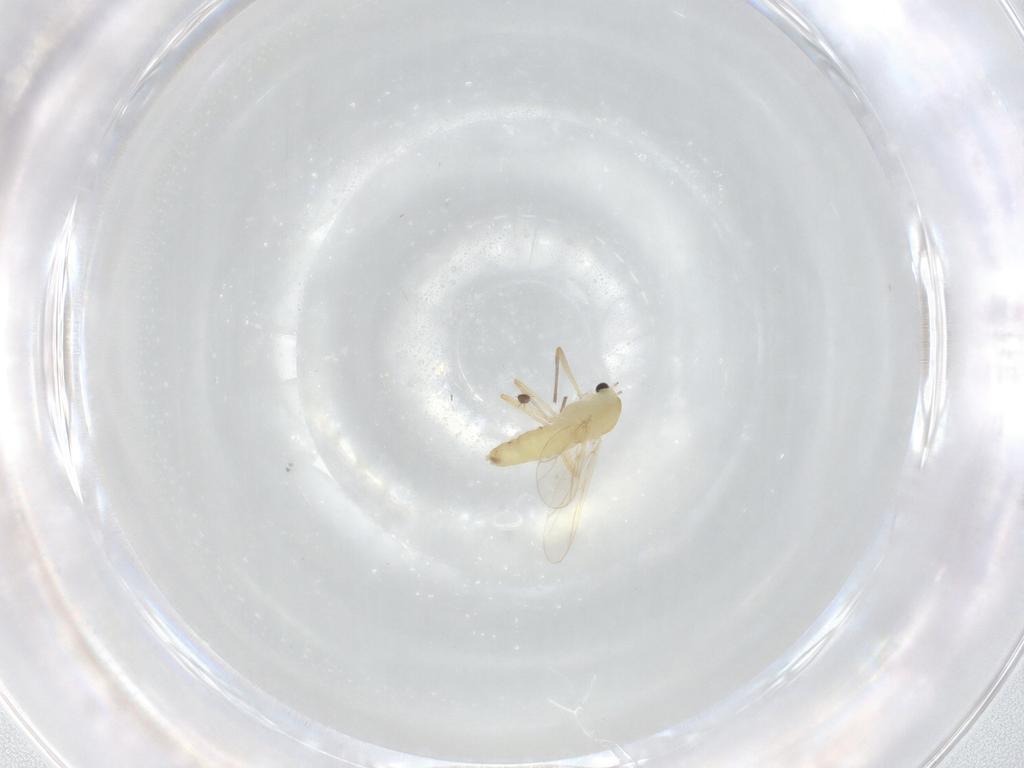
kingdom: Animalia
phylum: Arthropoda
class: Insecta
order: Diptera
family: Chironomidae
